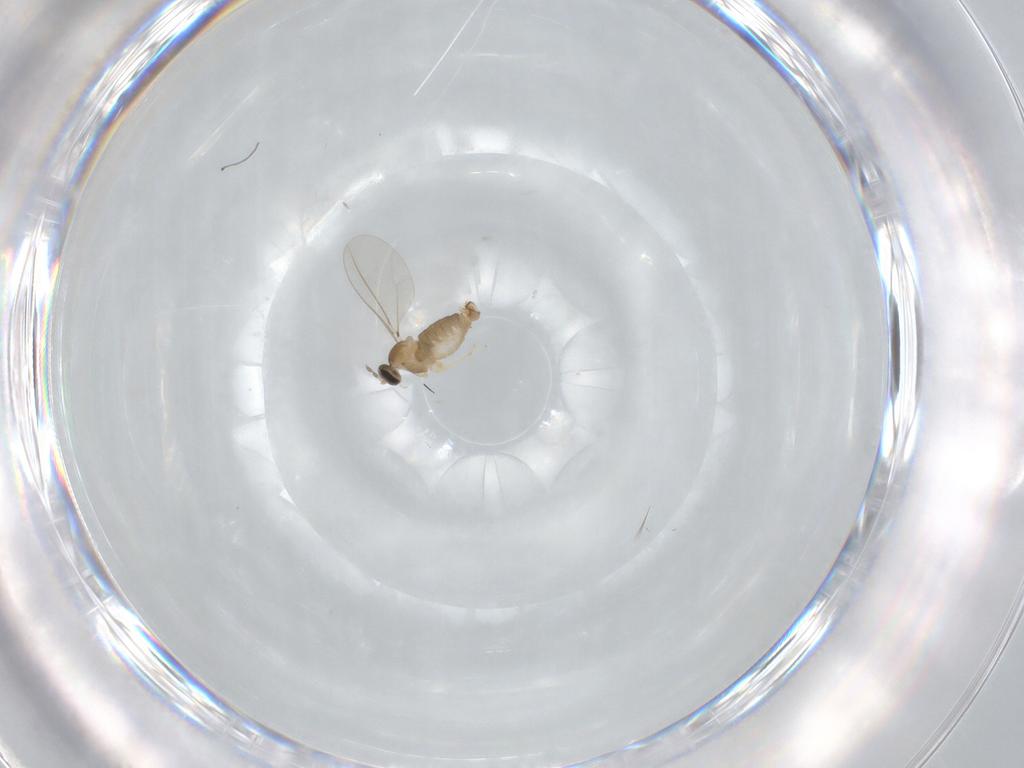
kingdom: Animalia
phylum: Arthropoda
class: Insecta
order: Diptera
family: Cecidomyiidae
